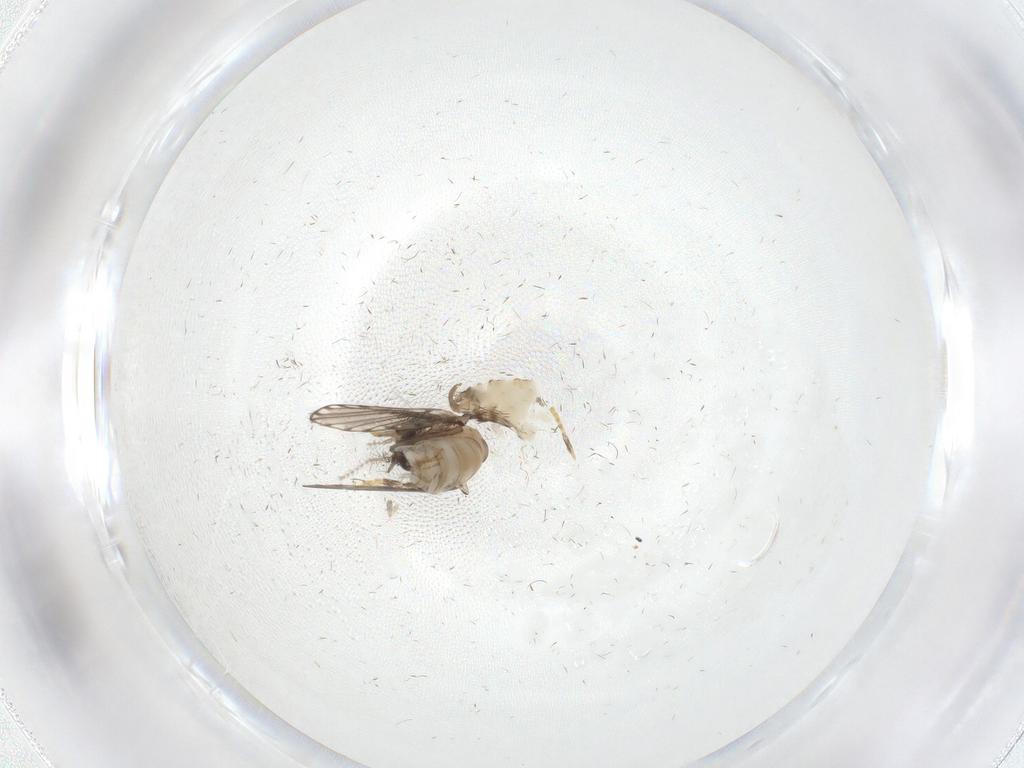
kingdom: Animalia
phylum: Arthropoda
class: Insecta
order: Diptera
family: Psychodidae
